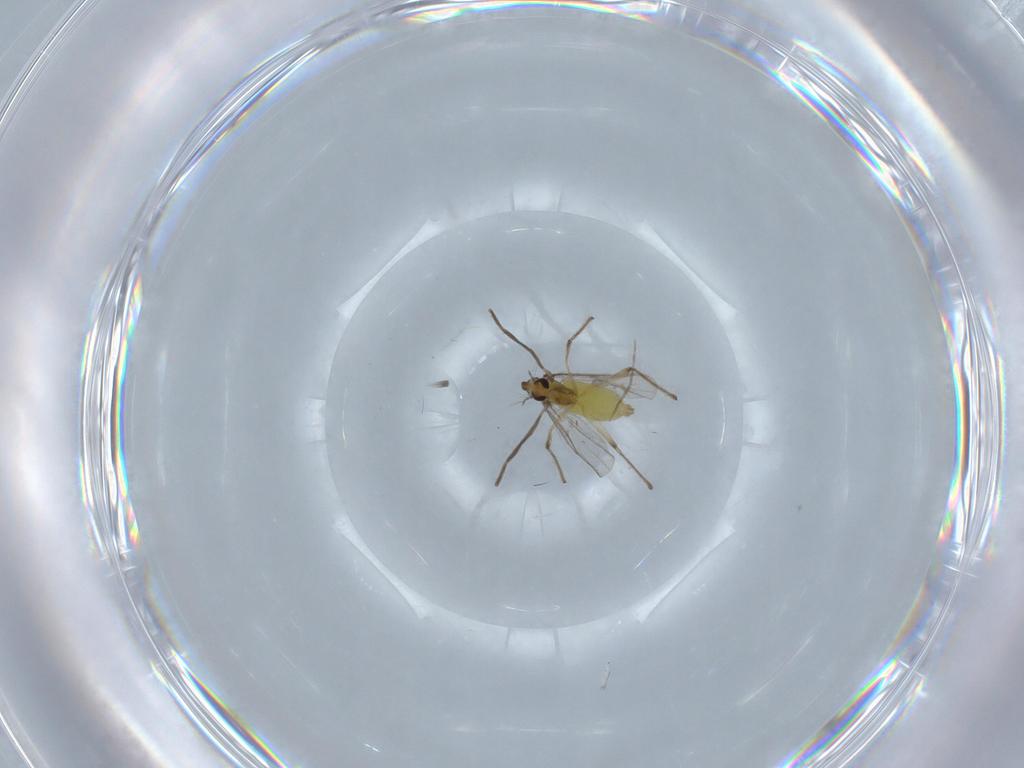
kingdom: Animalia
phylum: Arthropoda
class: Insecta
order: Diptera
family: Chironomidae
